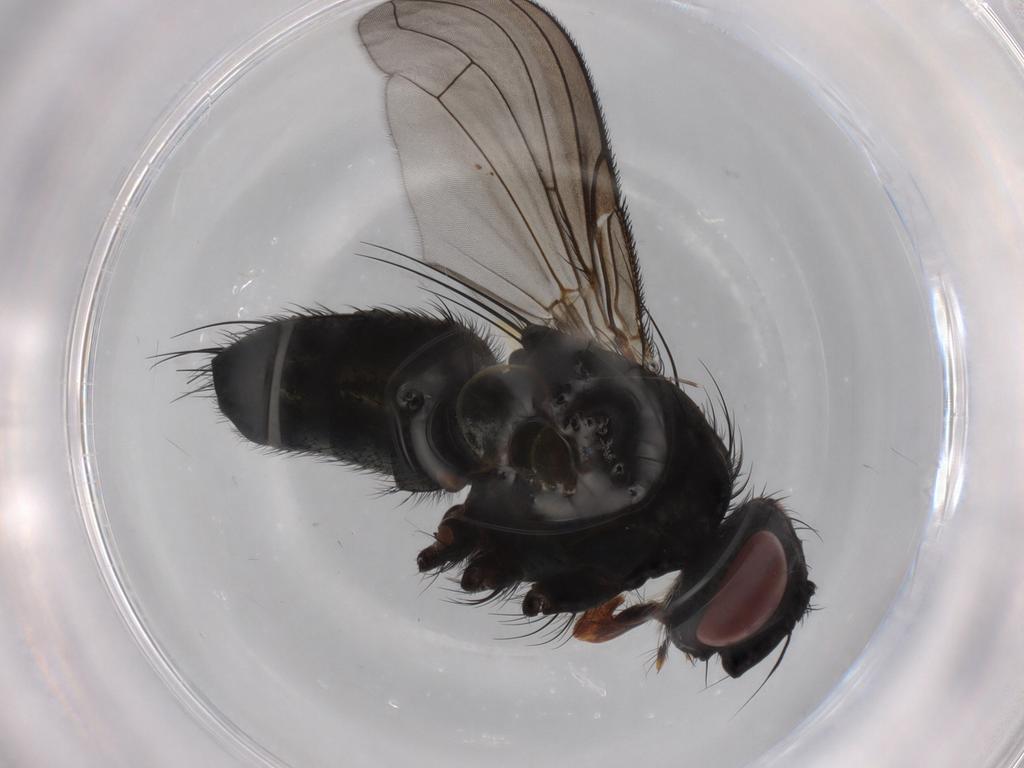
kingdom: Animalia
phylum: Arthropoda
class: Insecta
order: Diptera
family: Tachinidae
